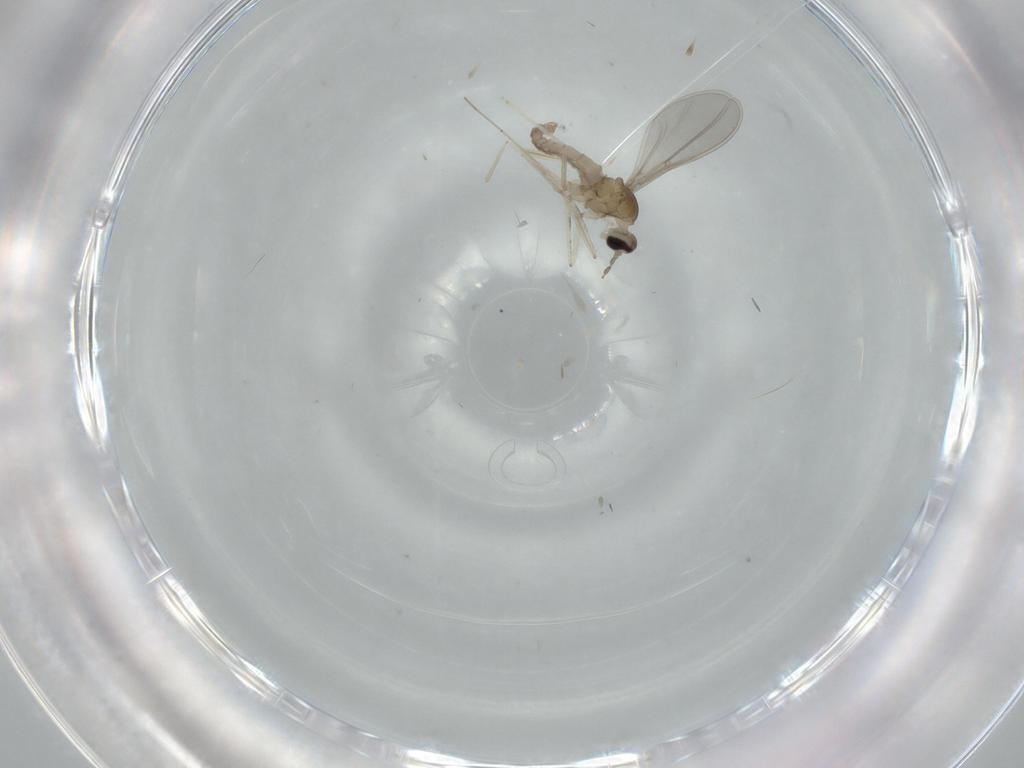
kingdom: Animalia
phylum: Arthropoda
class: Insecta
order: Diptera
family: Cecidomyiidae
